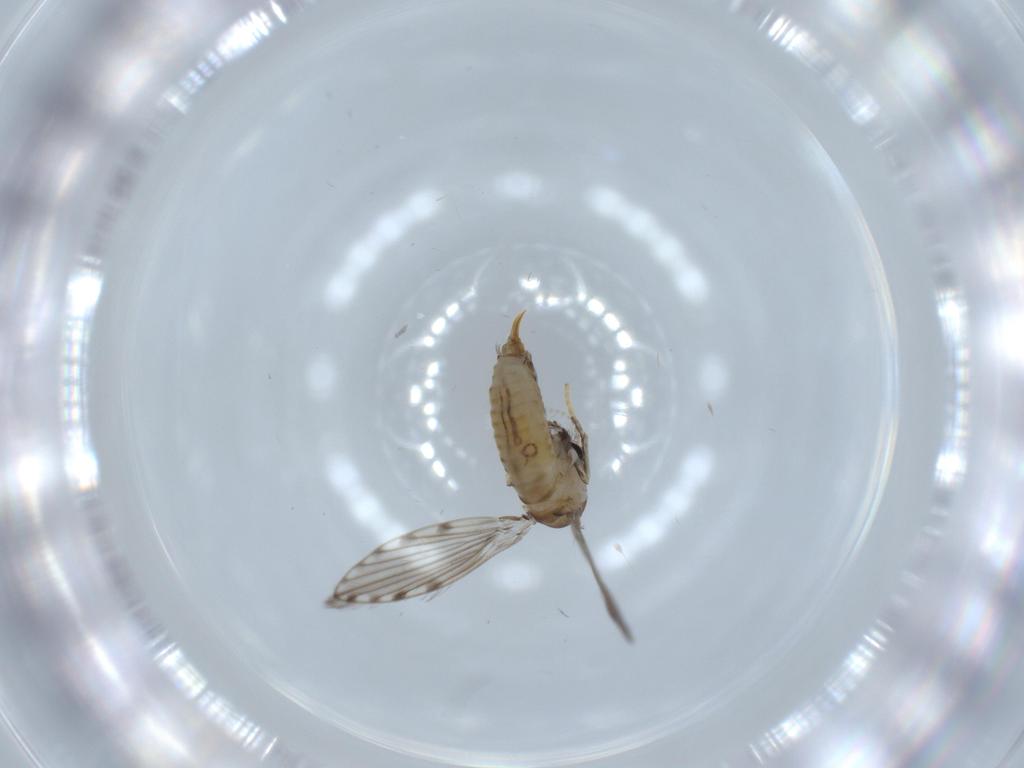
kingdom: Animalia
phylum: Arthropoda
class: Insecta
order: Diptera
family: Psychodidae
